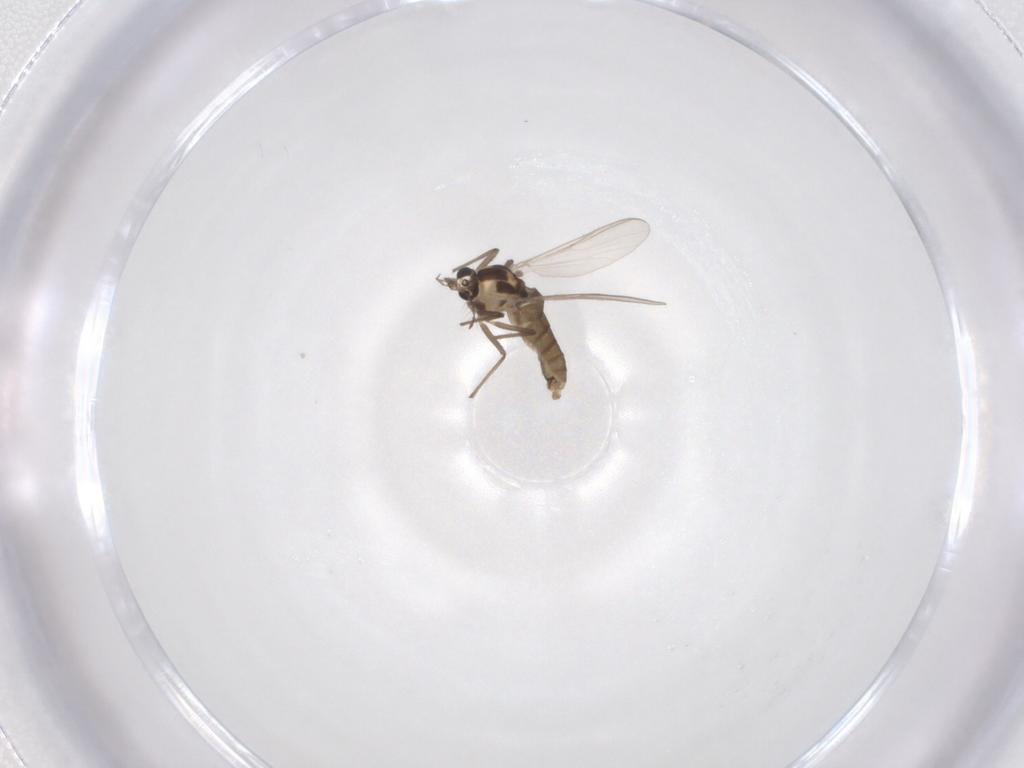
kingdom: Animalia
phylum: Arthropoda
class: Insecta
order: Diptera
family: Chironomidae
